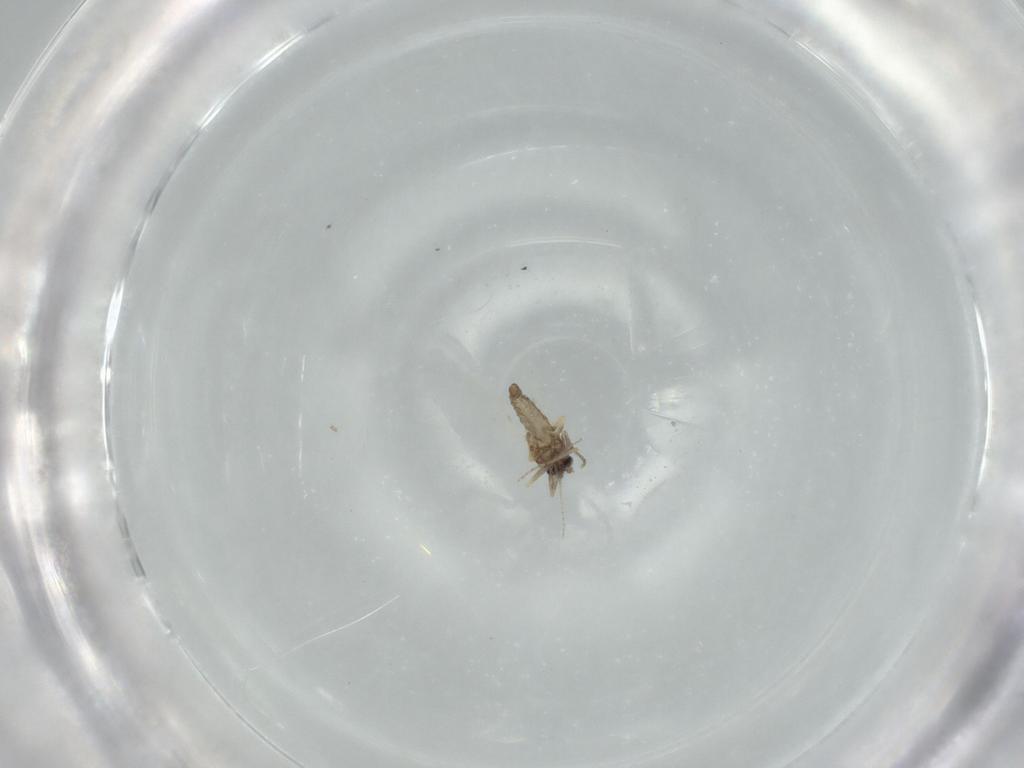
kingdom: Animalia
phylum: Arthropoda
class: Insecta
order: Diptera
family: Ceratopogonidae
